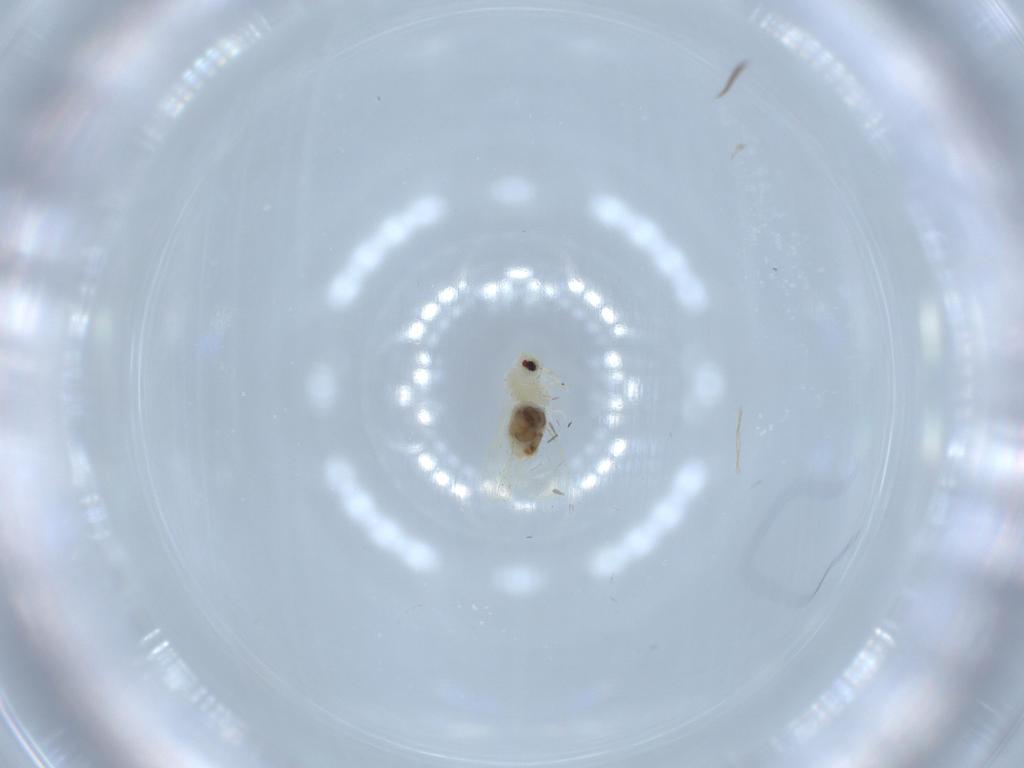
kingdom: Animalia
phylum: Arthropoda
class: Insecta
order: Hemiptera
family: Aleyrodidae
